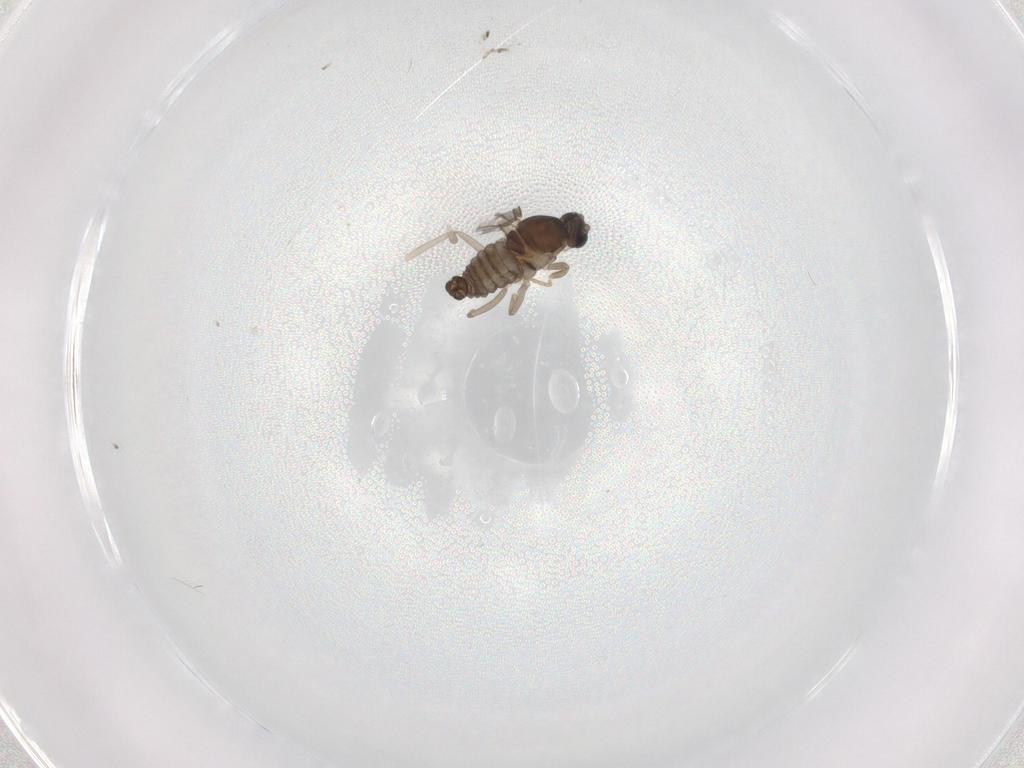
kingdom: Animalia
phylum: Arthropoda
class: Insecta
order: Diptera
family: Cecidomyiidae
